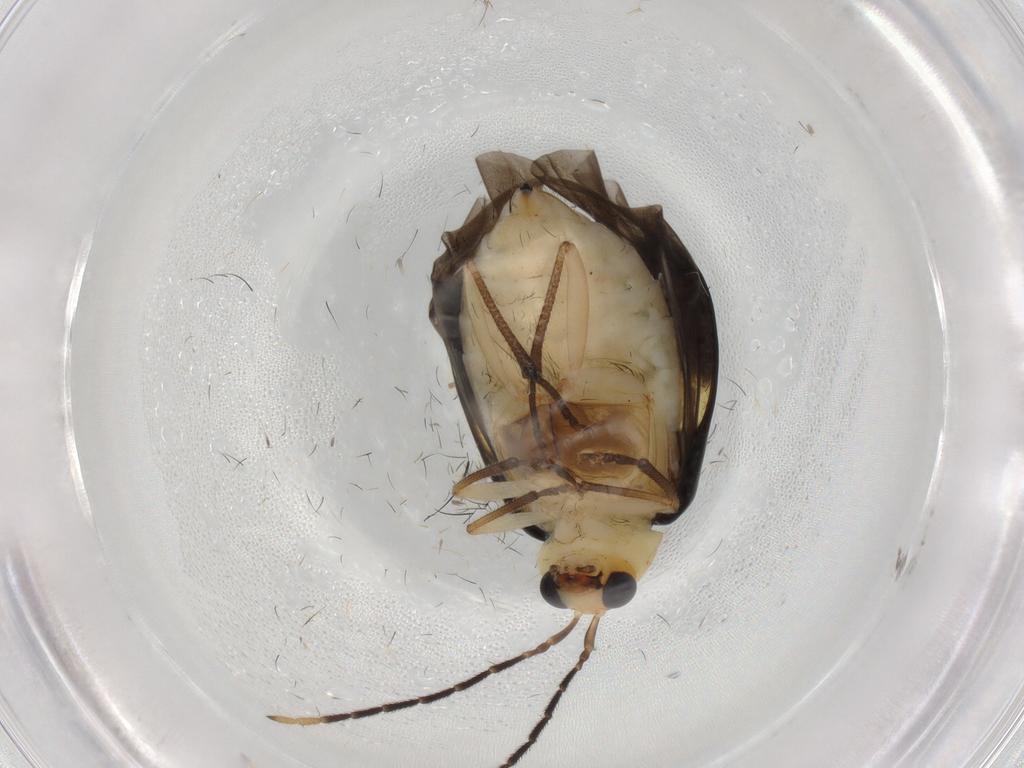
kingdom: Animalia
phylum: Arthropoda
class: Insecta
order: Coleoptera
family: Chrysomelidae
